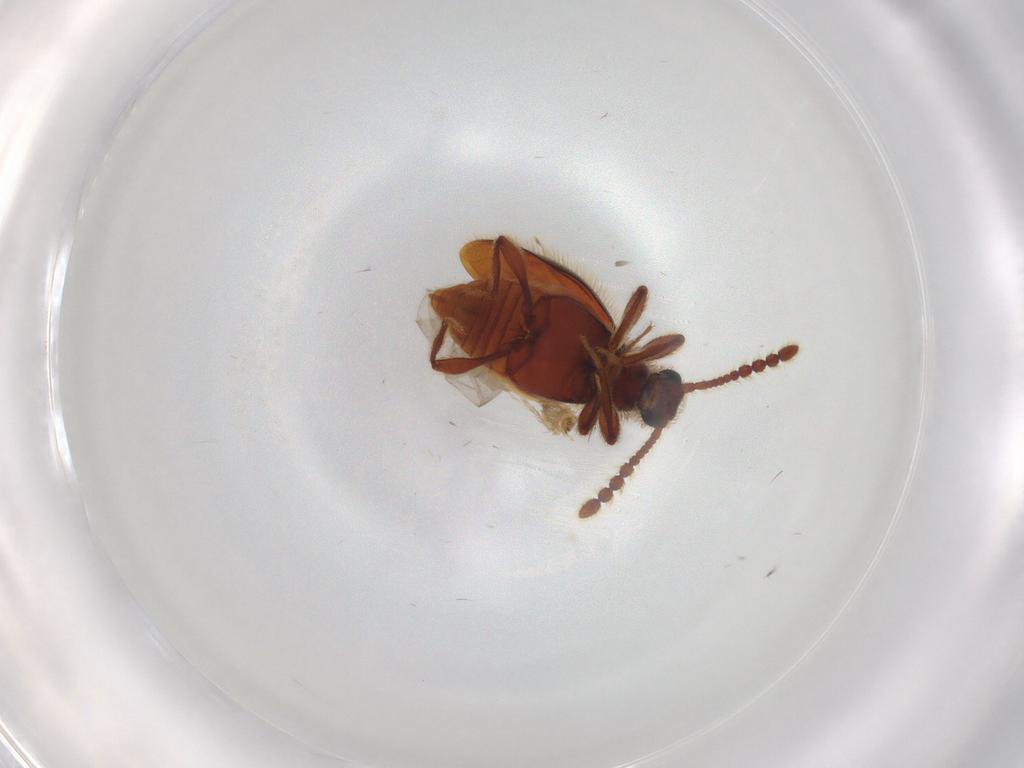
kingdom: Animalia
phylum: Arthropoda
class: Insecta
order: Coleoptera
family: Staphylinidae
